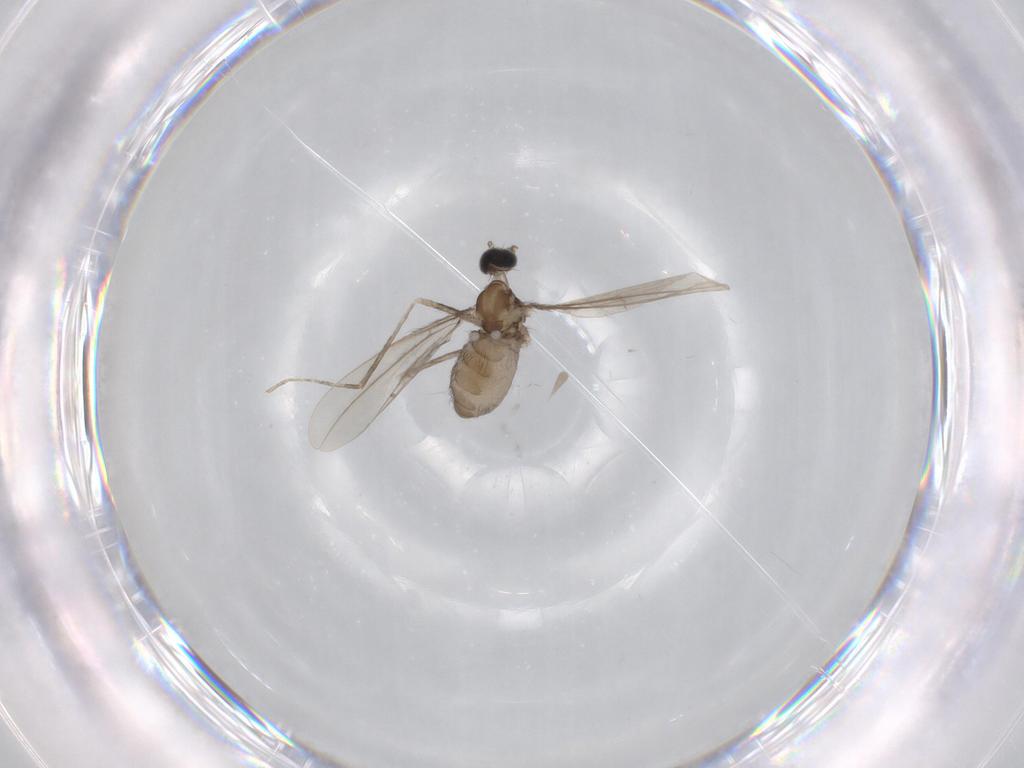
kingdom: Animalia
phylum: Arthropoda
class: Insecta
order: Diptera
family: Cecidomyiidae
